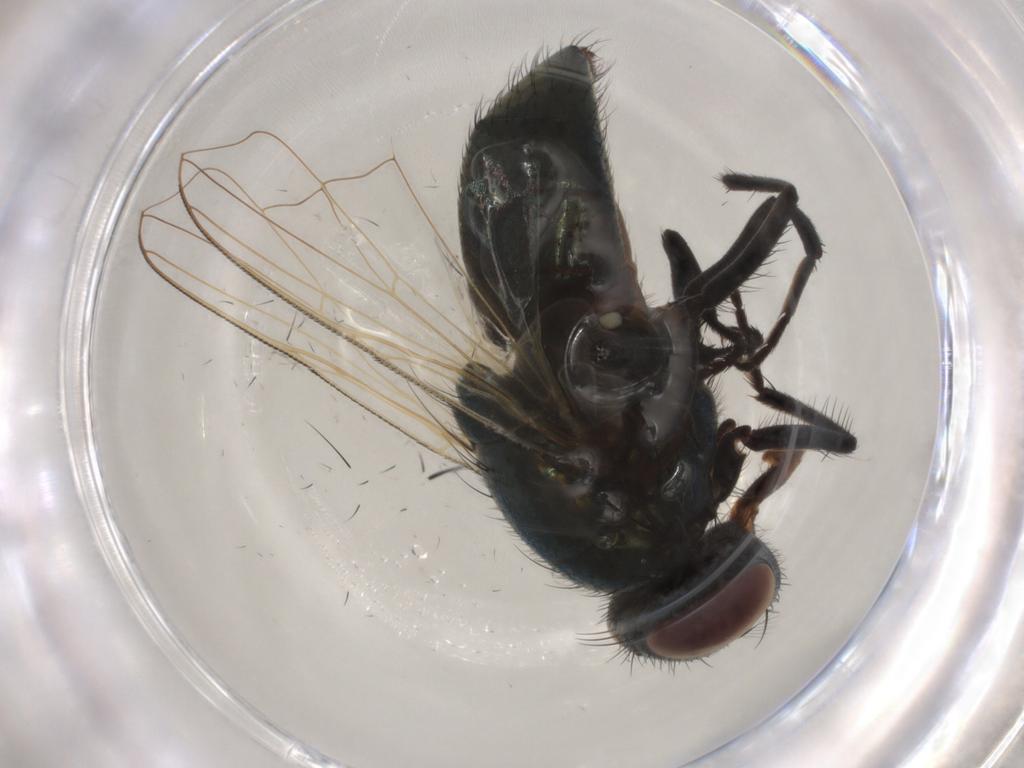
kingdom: Animalia
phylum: Arthropoda
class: Insecta
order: Diptera
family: Muscidae
